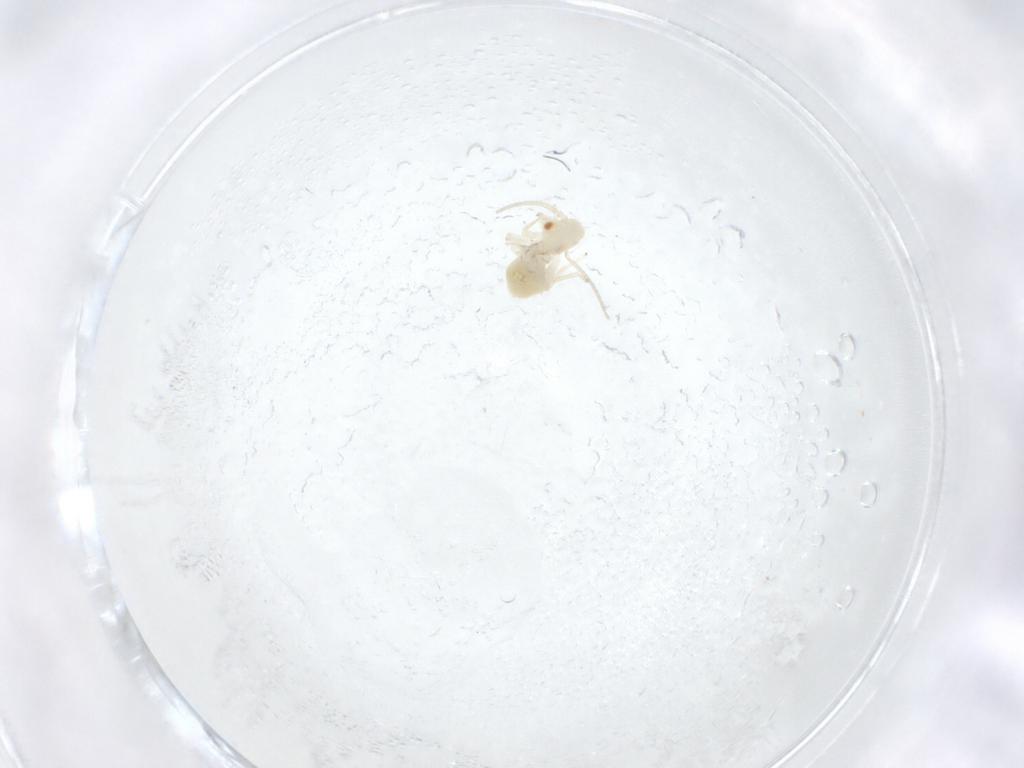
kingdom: Animalia
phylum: Arthropoda
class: Insecta
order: Psocodea
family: Caeciliusidae
